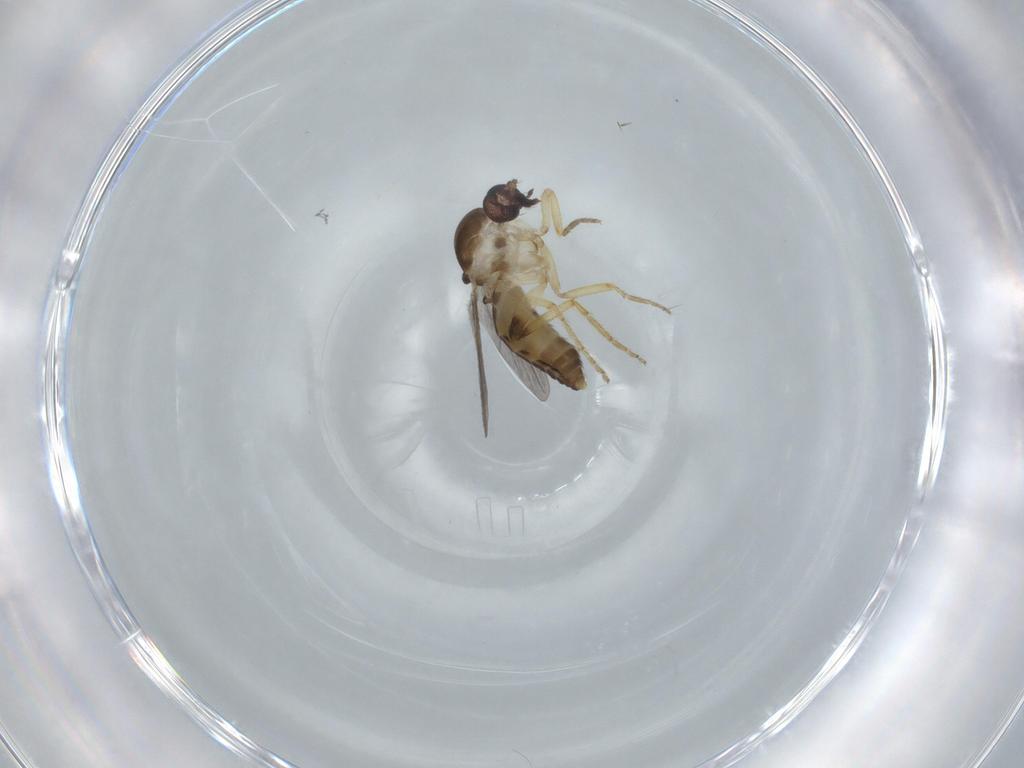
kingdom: Animalia
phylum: Arthropoda
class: Insecta
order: Diptera
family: Ceratopogonidae
